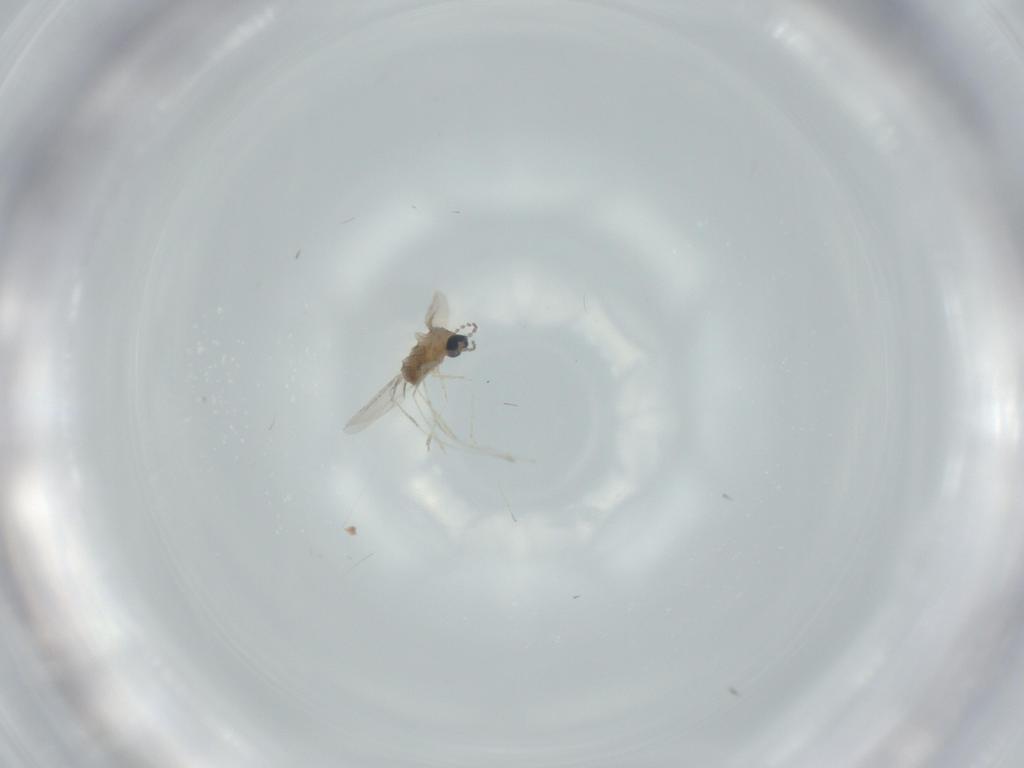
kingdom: Animalia
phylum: Arthropoda
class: Insecta
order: Diptera
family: Cecidomyiidae
